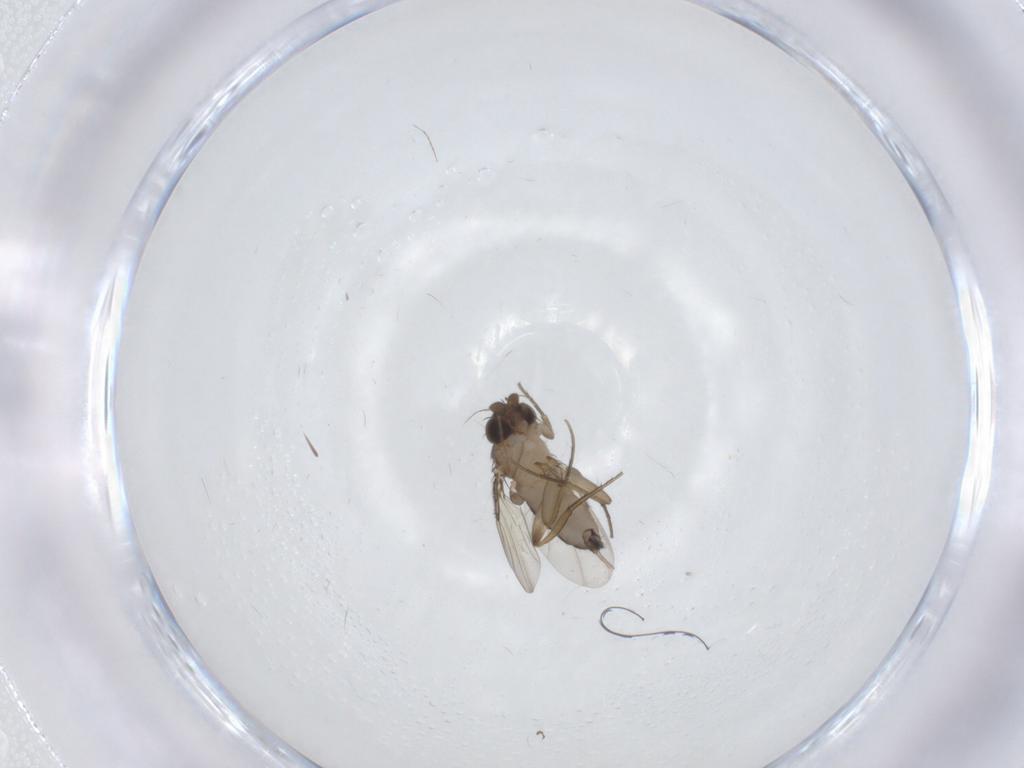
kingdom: Animalia
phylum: Arthropoda
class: Insecta
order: Diptera
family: Phoridae
